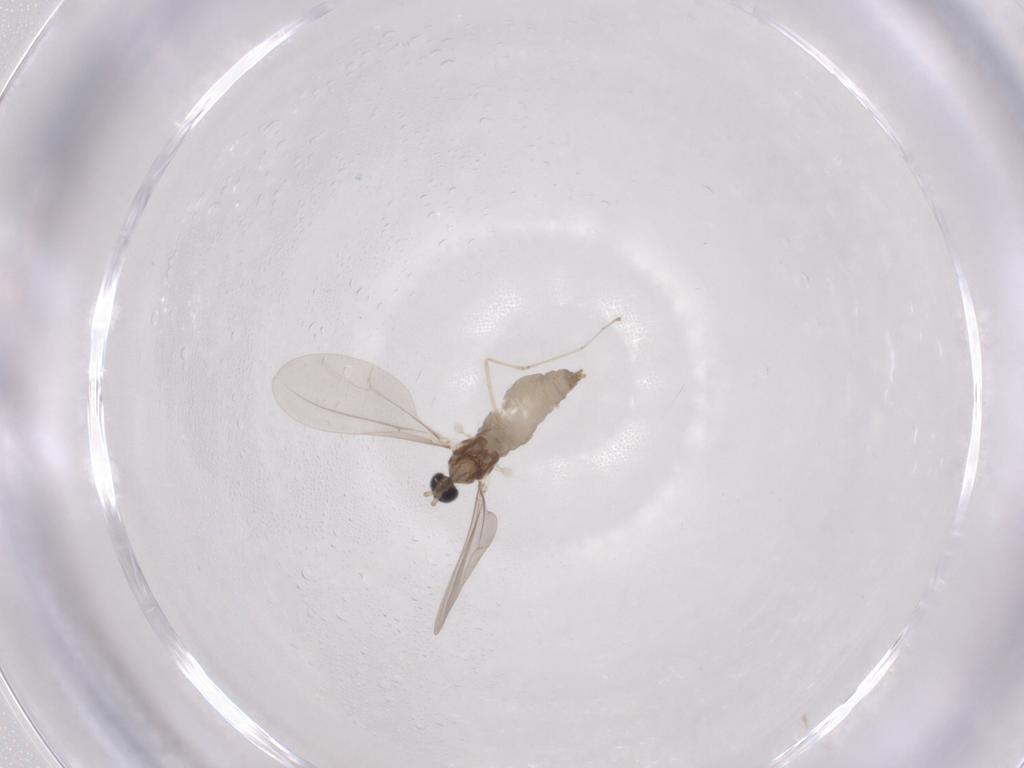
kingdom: Animalia
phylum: Arthropoda
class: Insecta
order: Diptera
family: Cecidomyiidae
